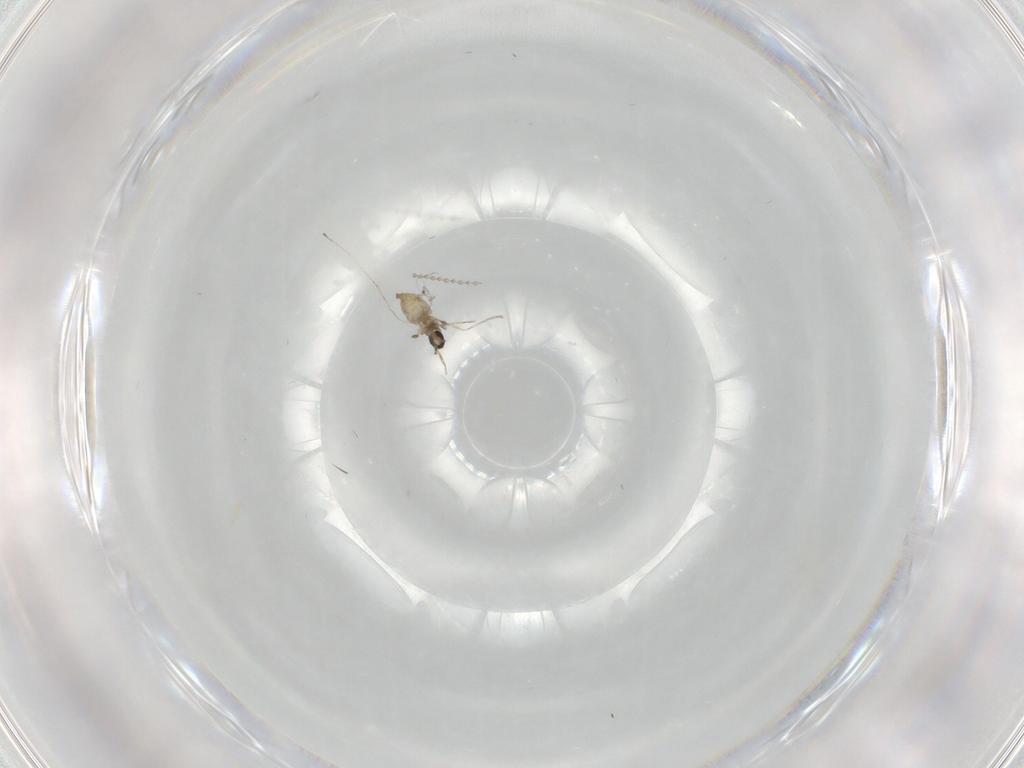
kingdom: Animalia
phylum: Arthropoda
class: Insecta
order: Diptera
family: Cecidomyiidae
